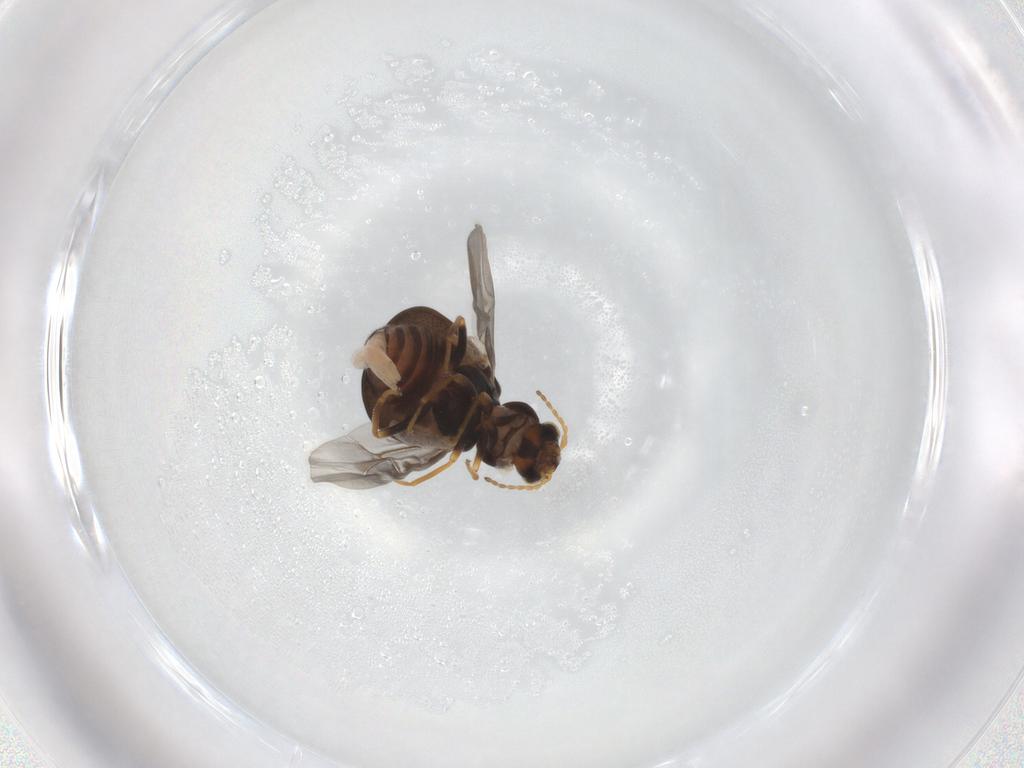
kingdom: Animalia
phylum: Arthropoda
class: Insecta
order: Coleoptera
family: Melyridae
